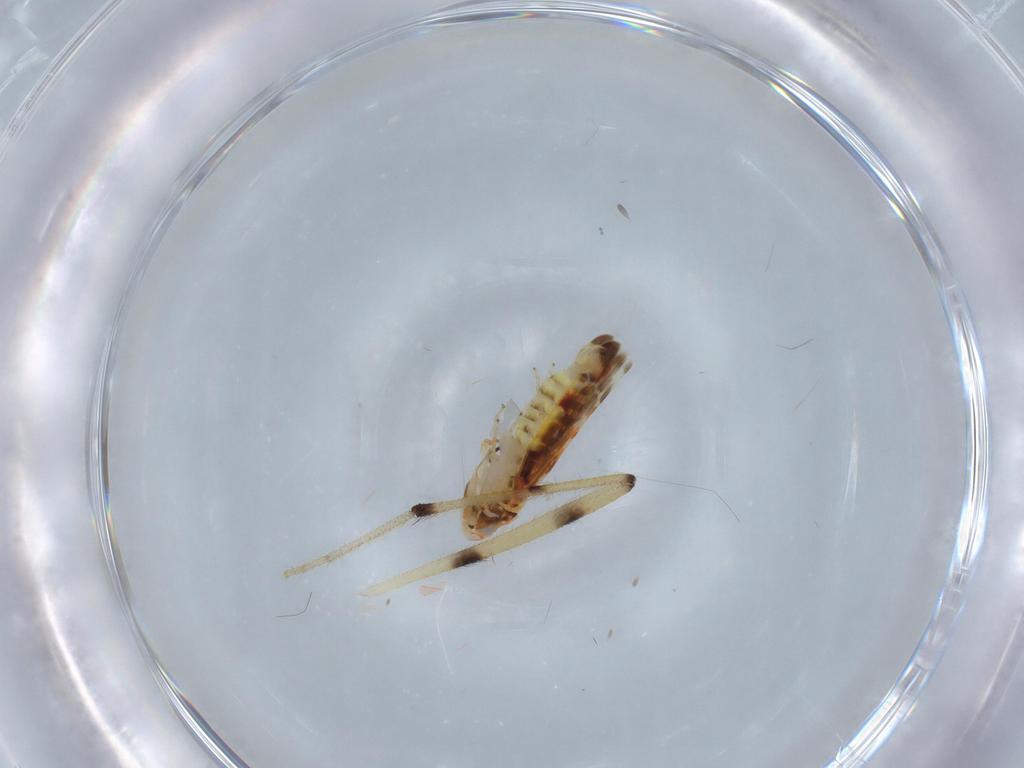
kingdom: Animalia
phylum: Arthropoda
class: Insecta
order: Hemiptera
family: Cicadellidae
